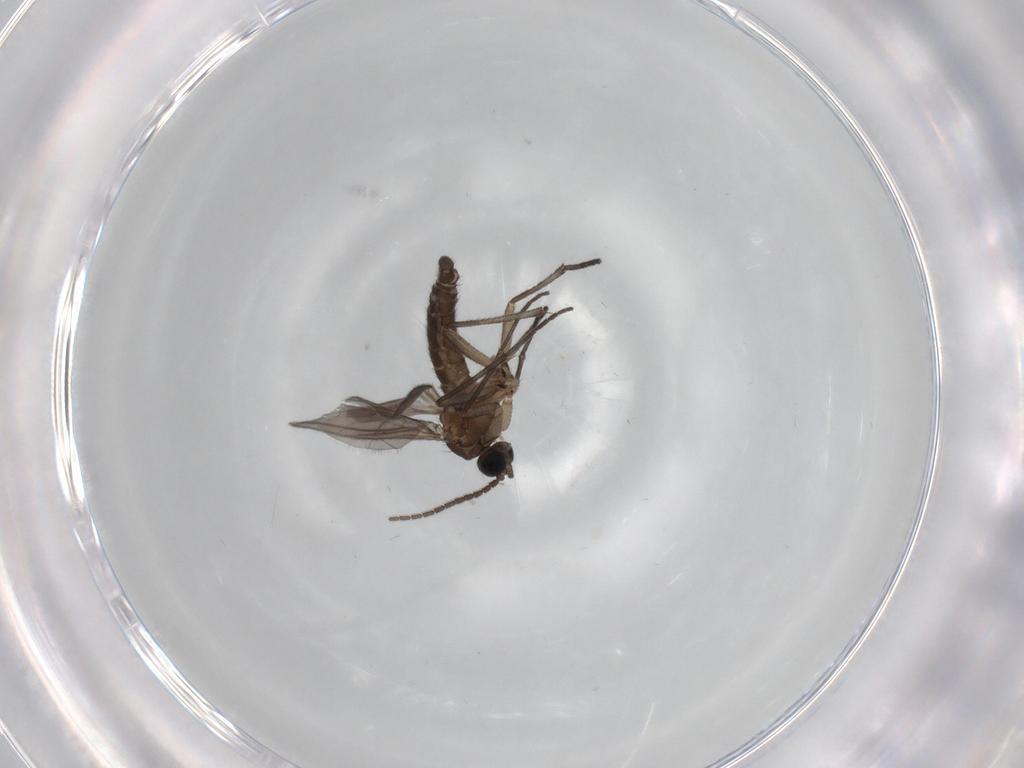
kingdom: Animalia
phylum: Arthropoda
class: Insecta
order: Diptera
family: Sciaridae
